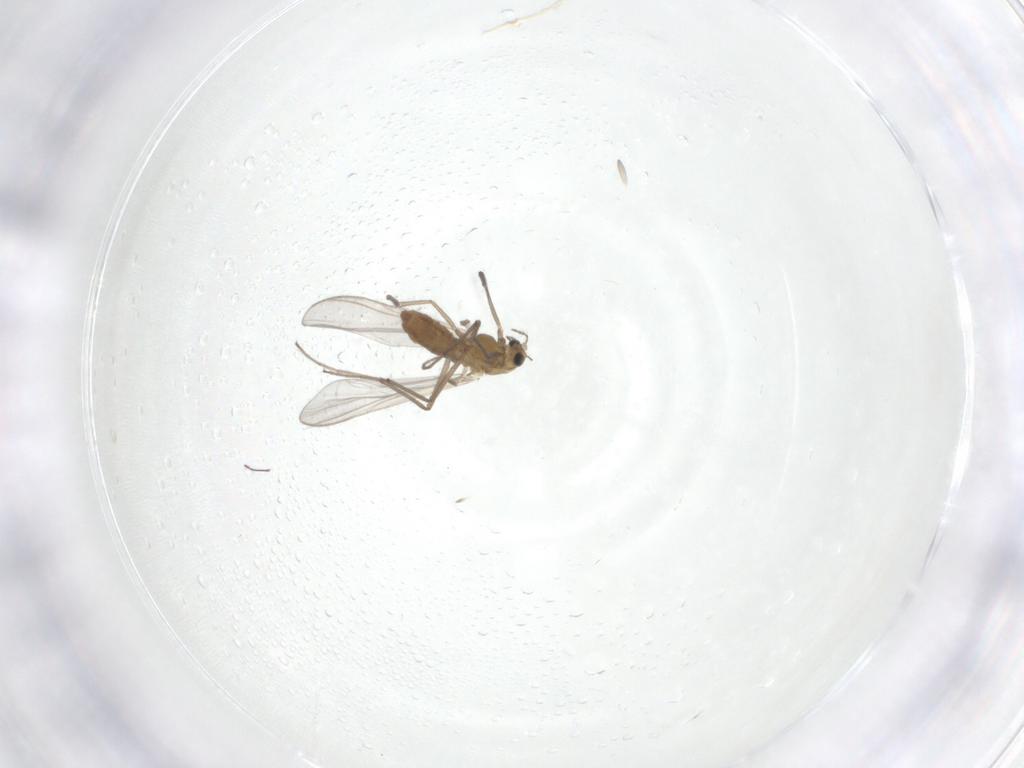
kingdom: Animalia
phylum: Arthropoda
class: Insecta
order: Diptera
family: Chironomidae
